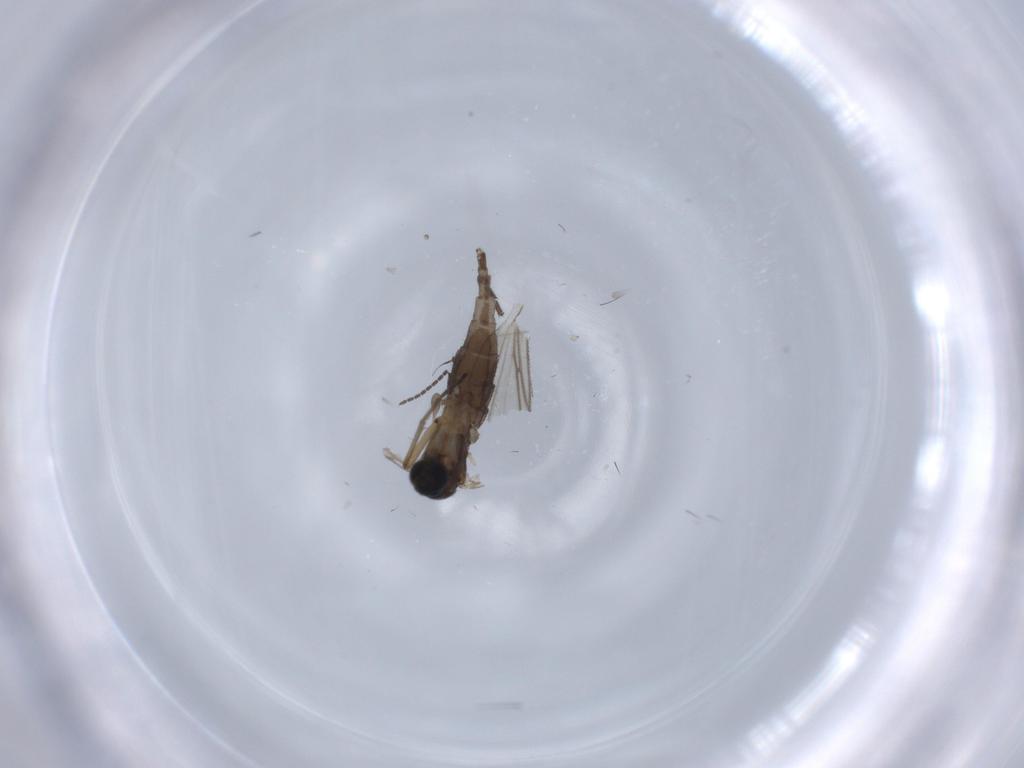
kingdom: Animalia
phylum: Arthropoda
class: Insecta
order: Diptera
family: Sciaridae
